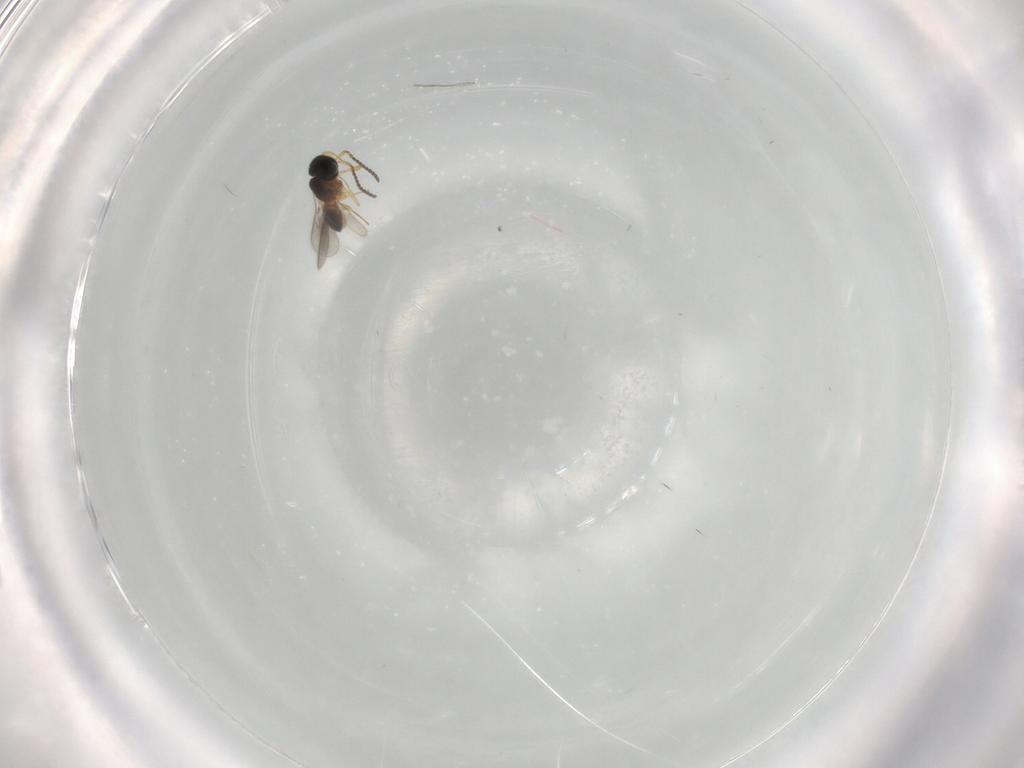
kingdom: Animalia
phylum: Arthropoda
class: Insecta
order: Hymenoptera
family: Scelionidae
